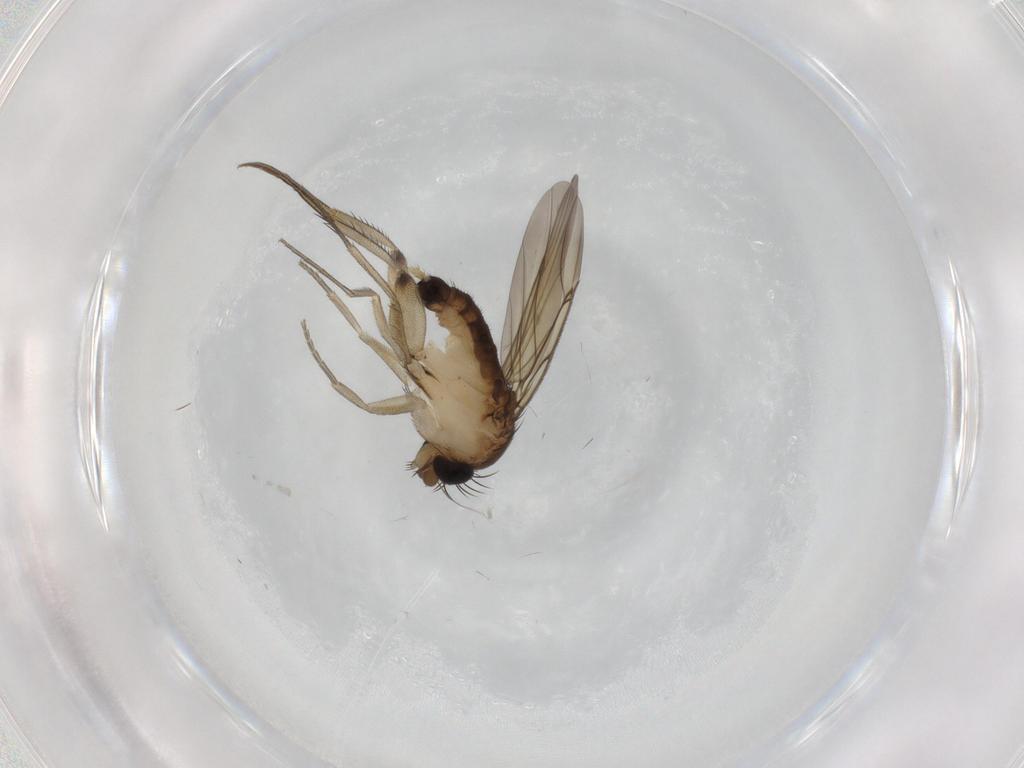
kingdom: Animalia
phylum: Arthropoda
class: Insecta
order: Diptera
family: Phoridae
